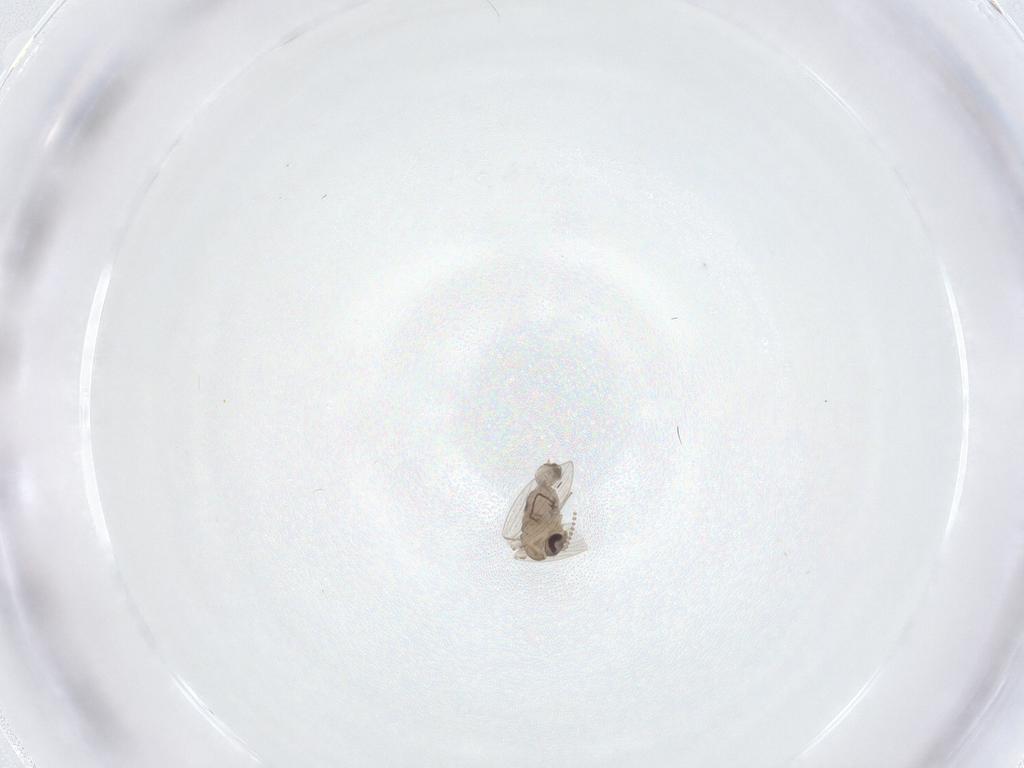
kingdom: Animalia
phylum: Arthropoda
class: Insecta
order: Diptera
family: Psychodidae
